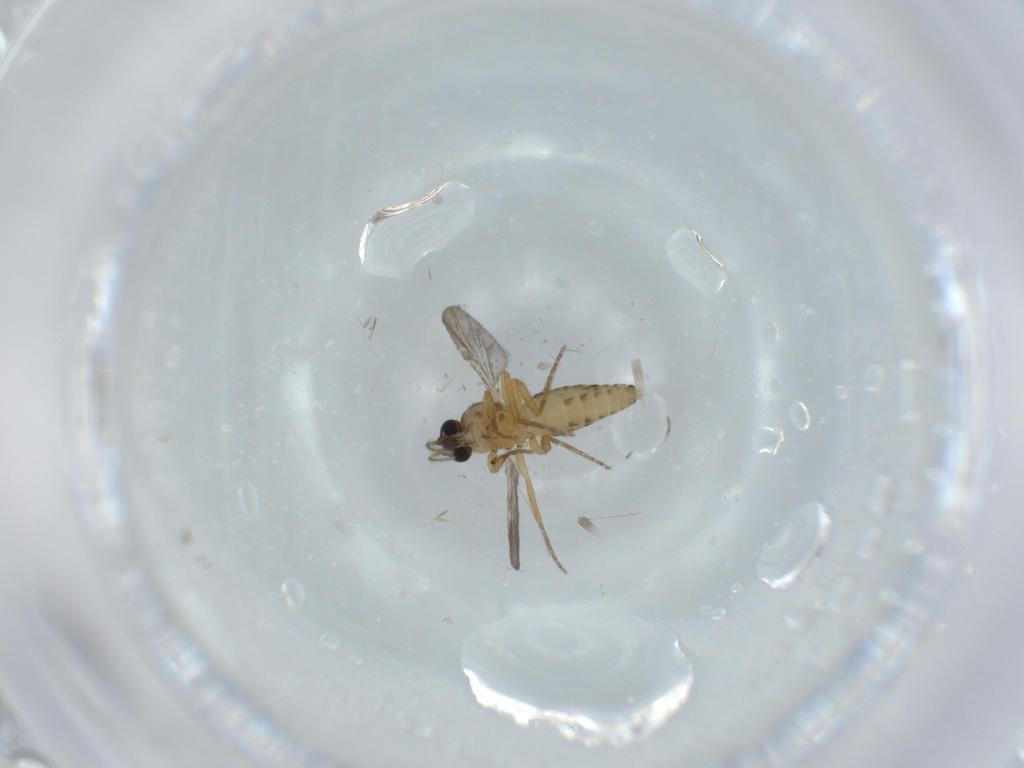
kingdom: Animalia
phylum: Arthropoda
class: Insecta
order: Diptera
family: Ceratopogonidae
